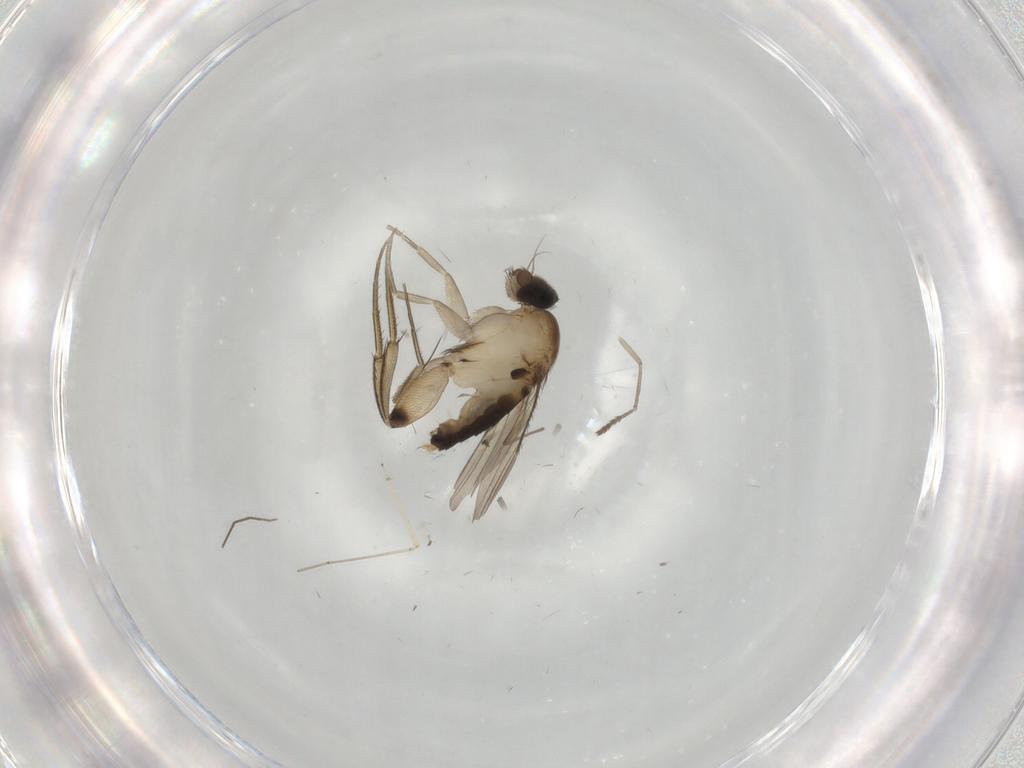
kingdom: Animalia
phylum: Arthropoda
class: Insecta
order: Diptera
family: Phoridae
